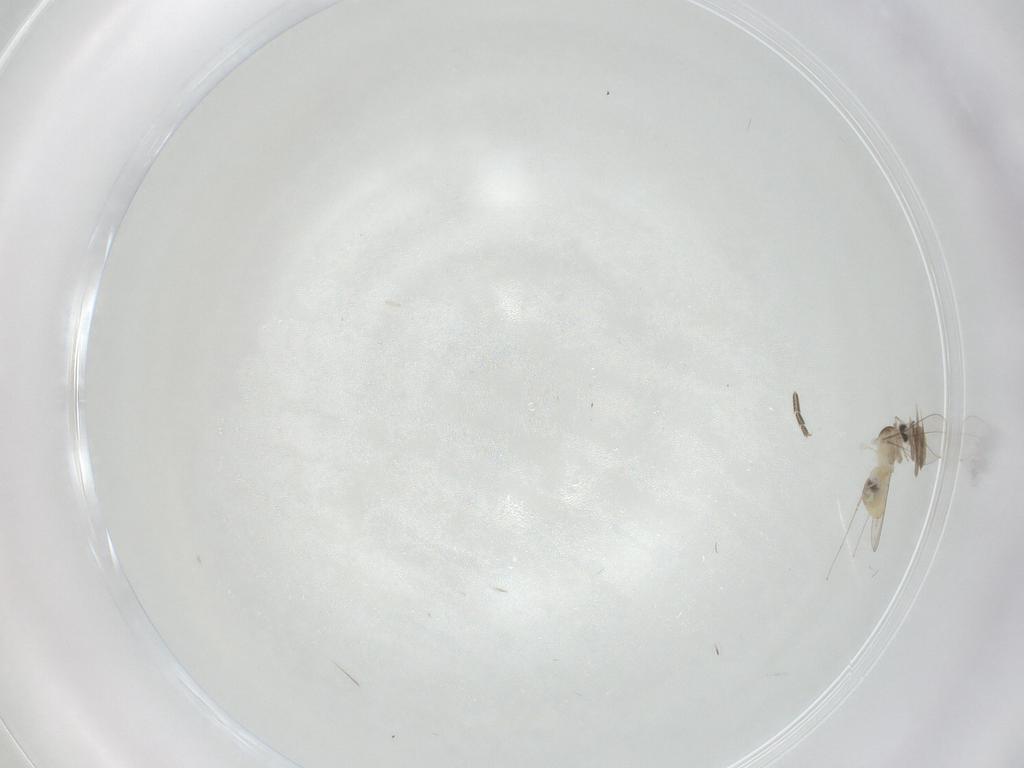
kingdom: Animalia
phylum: Arthropoda
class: Insecta
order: Diptera
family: Phoridae
